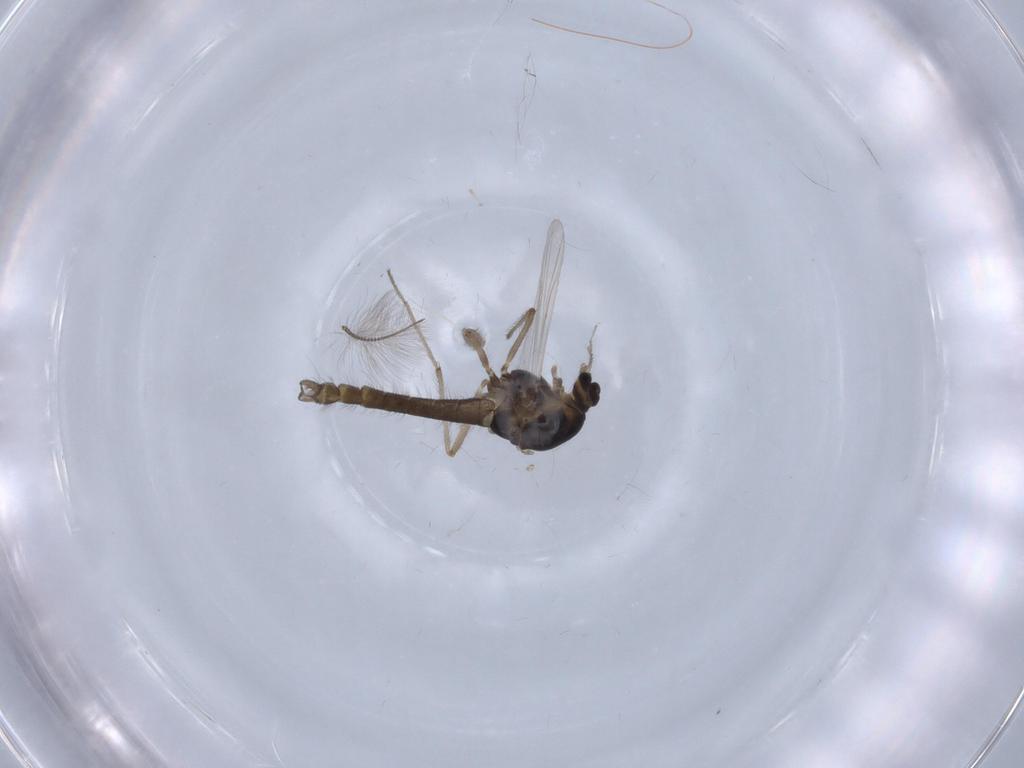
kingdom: Animalia
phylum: Arthropoda
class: Insecta
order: Diptera
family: Chironomidae
